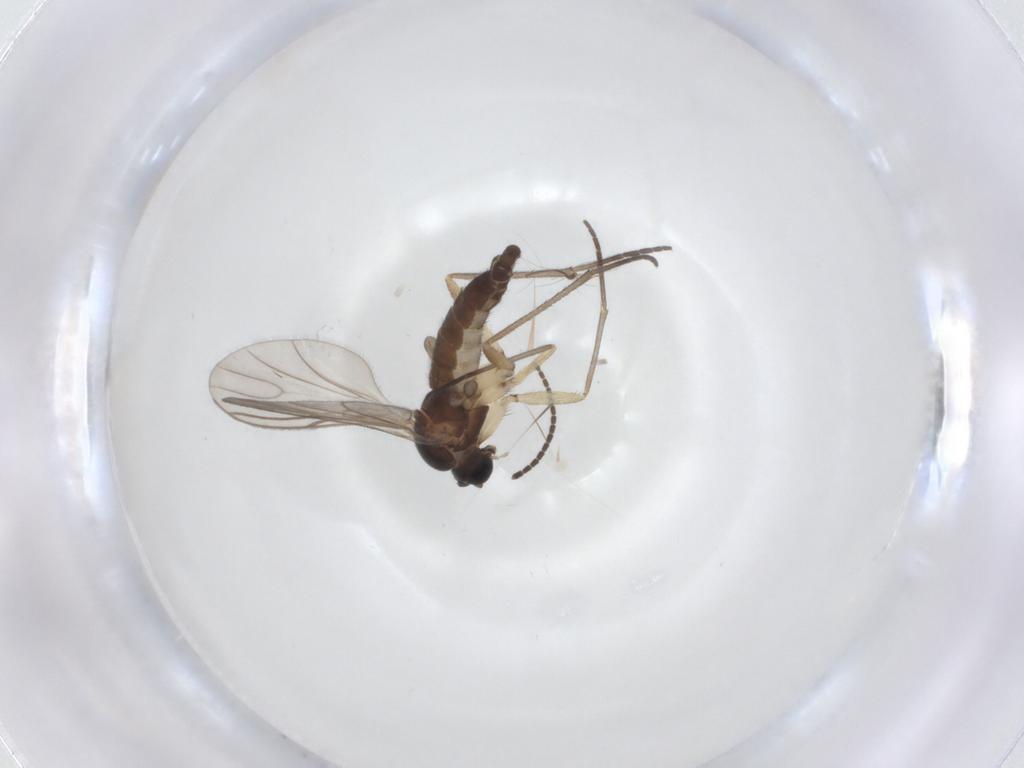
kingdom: Animalia
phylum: Arthropoda
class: Insecta
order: Diptera
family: Sciaridae
